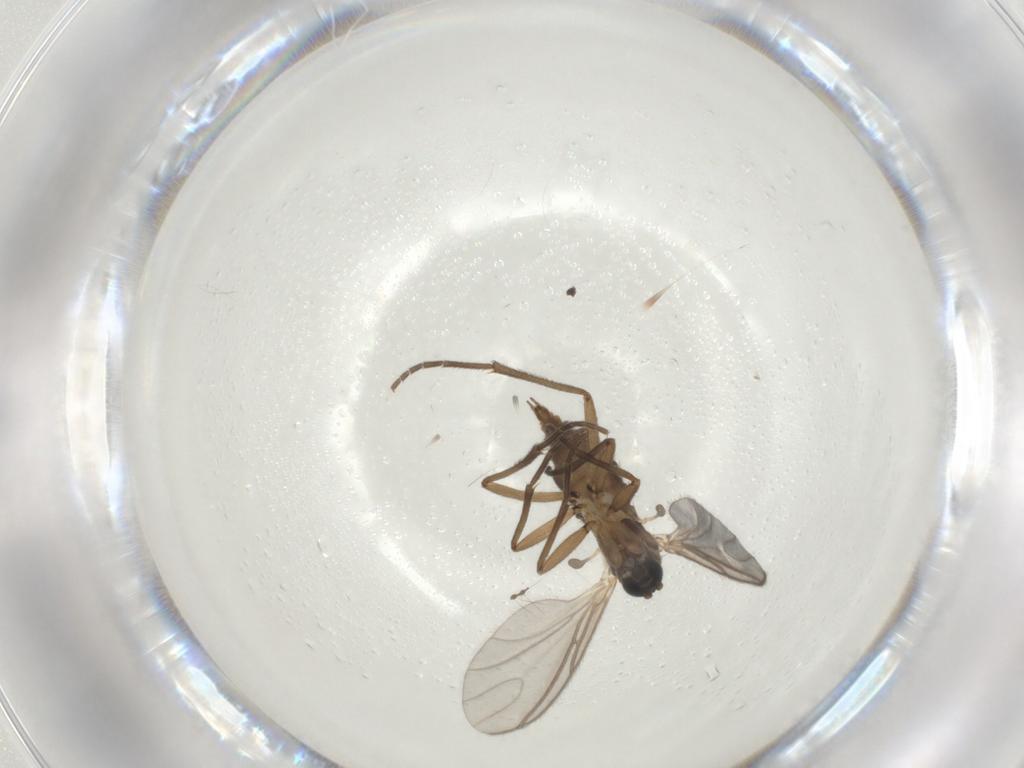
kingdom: Animalia
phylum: Arthropoda
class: Insecta
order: Diptera
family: Sciaridae
